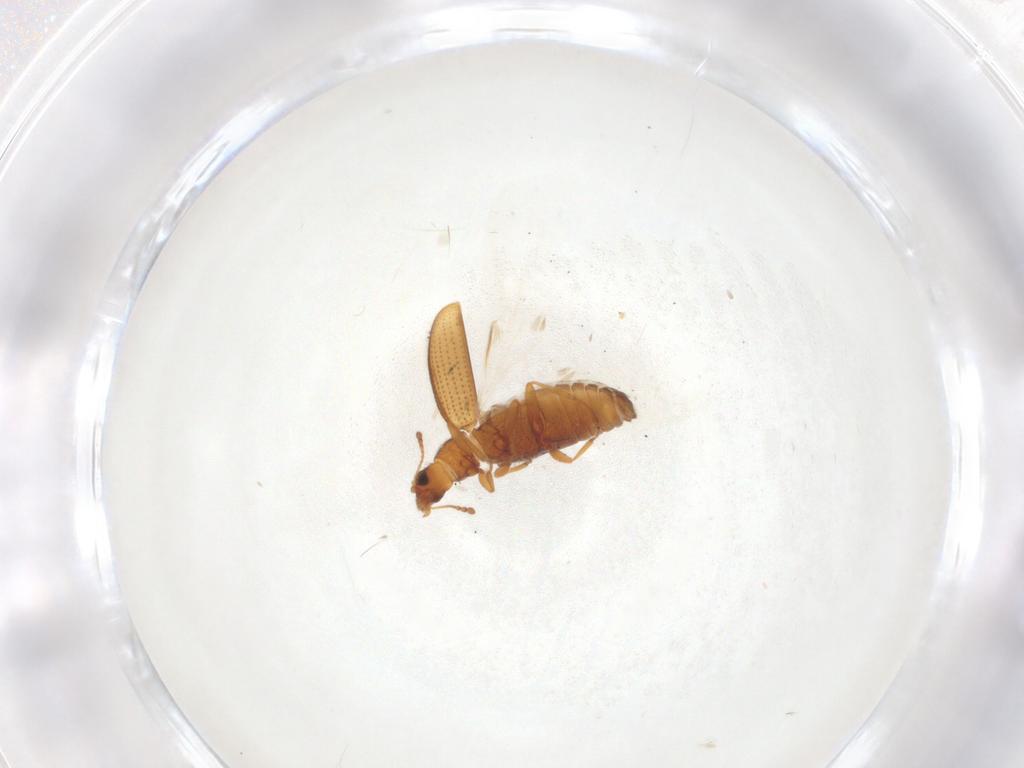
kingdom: Animalia
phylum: Arthropoda
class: Insecta
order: Coleoptera
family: Latridiidae
